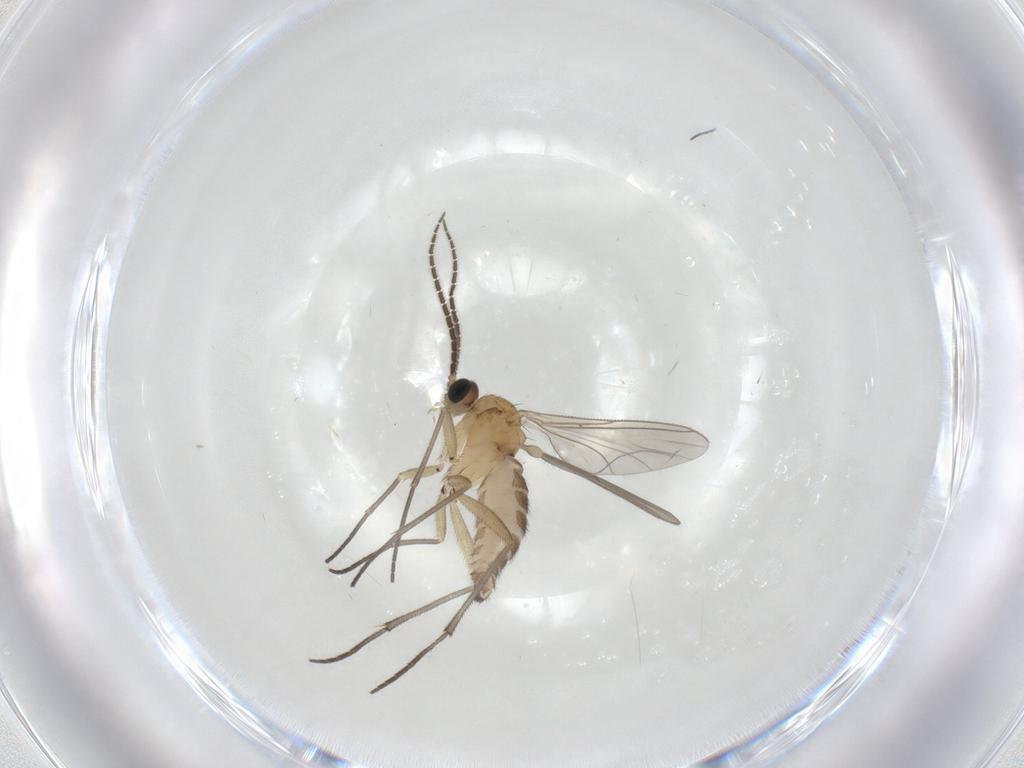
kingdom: Animalia
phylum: Arthropoda
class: Insecta
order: Diptera
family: Sciaridae
